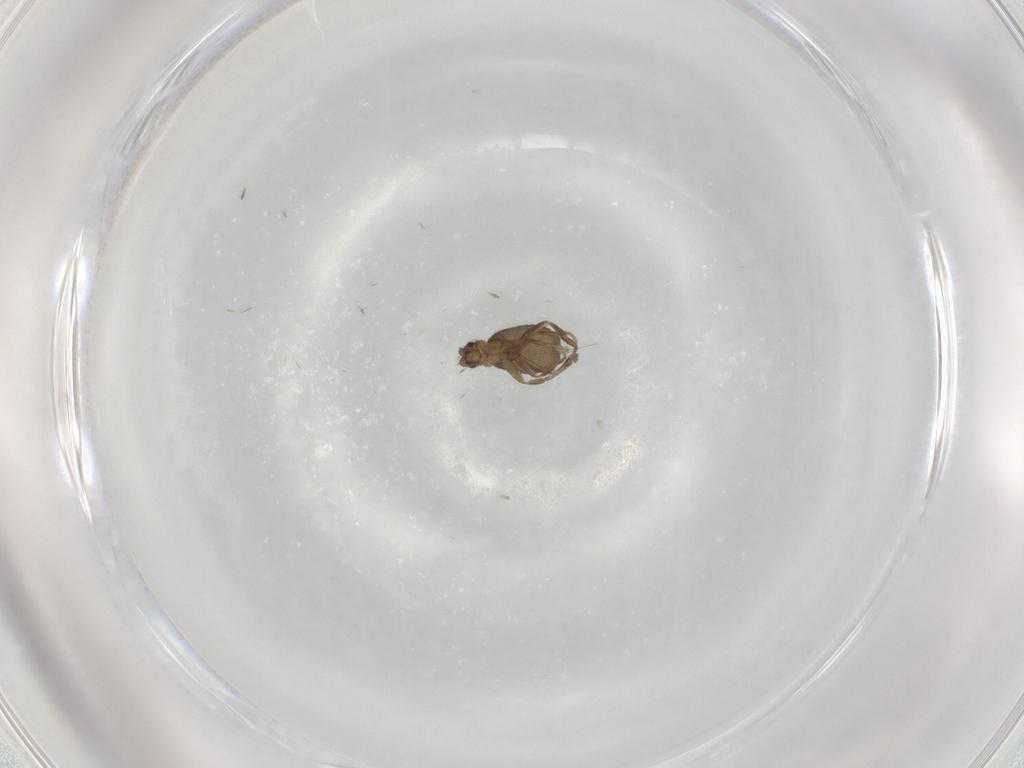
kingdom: Animalia
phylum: Arthropoda
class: Insecta
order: Diptera
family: Phoridae
